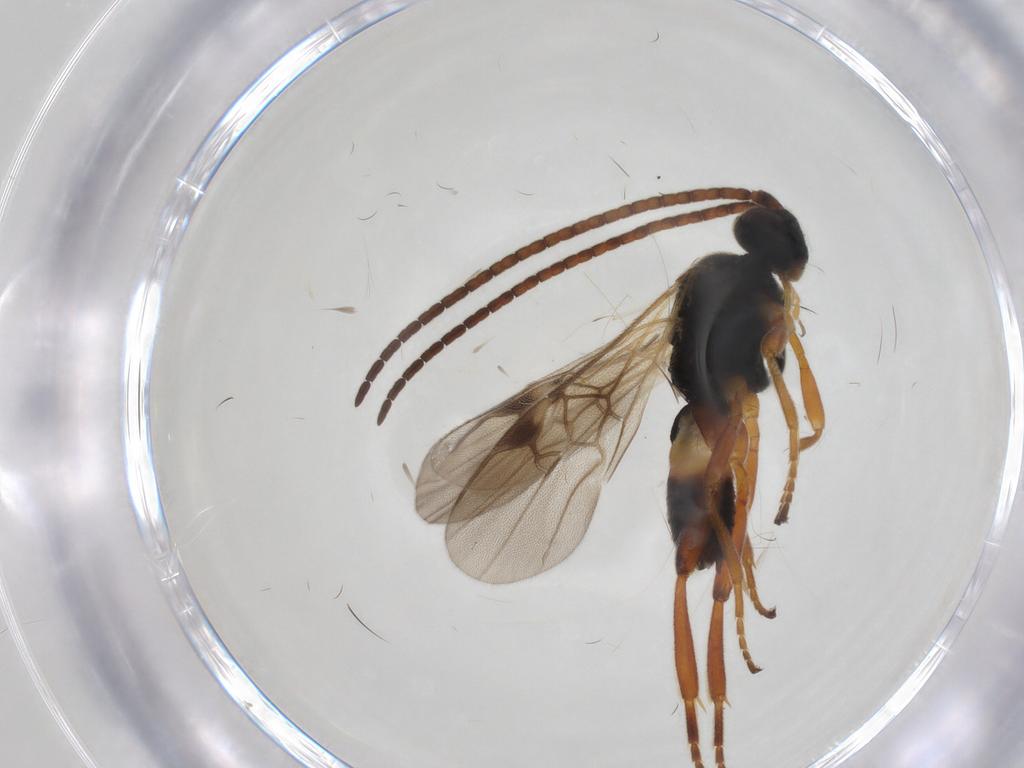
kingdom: Animalia
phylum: Arthropoda
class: Insecta
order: Hymenoptera
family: Braconidae
